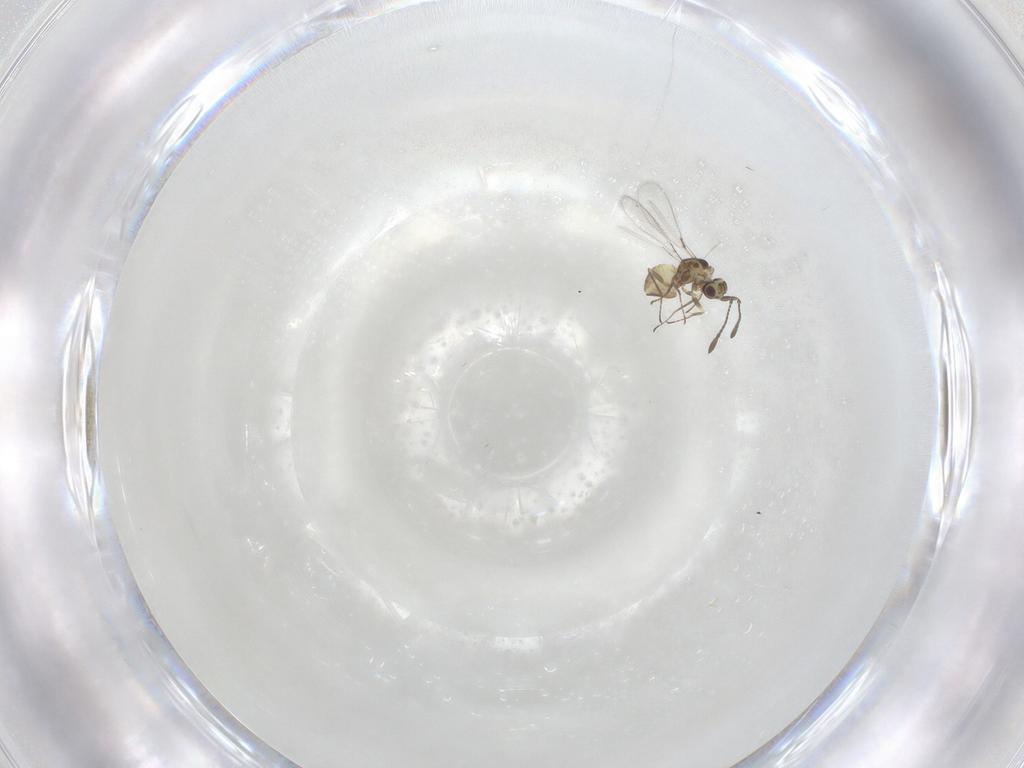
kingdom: Animalia
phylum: Arthropoda
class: Insecta
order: Hymenoptera
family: Mymaridae
